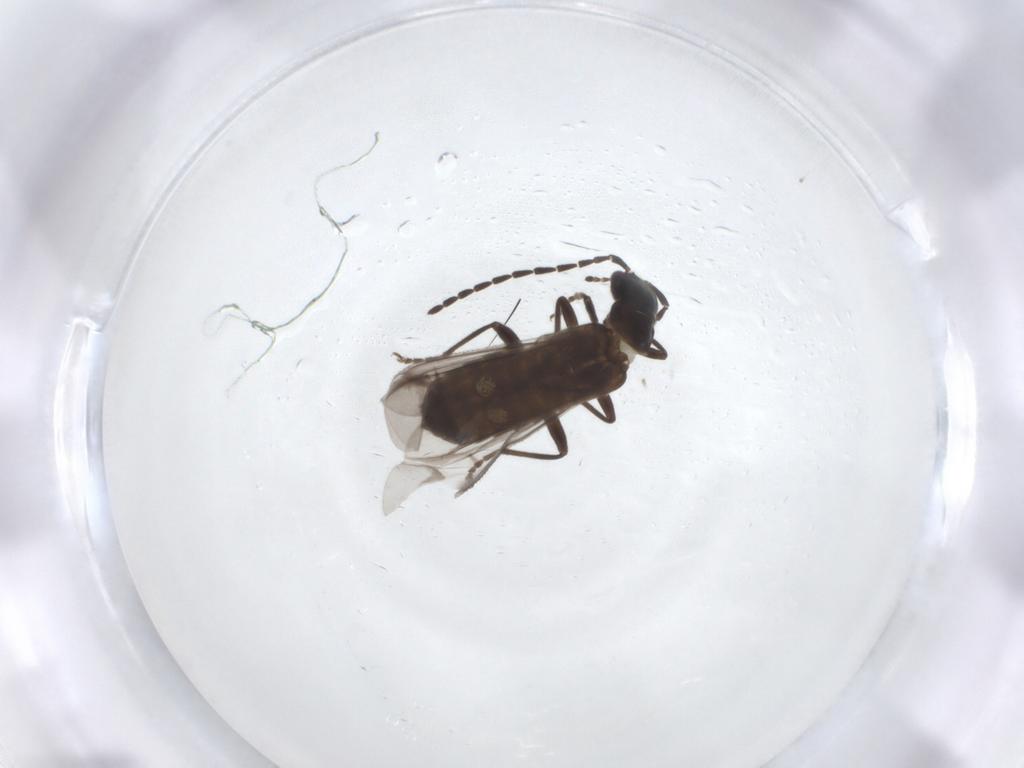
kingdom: Animalia
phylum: Arthropoda
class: Insecta
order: Coleoptera
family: Cantharidae
